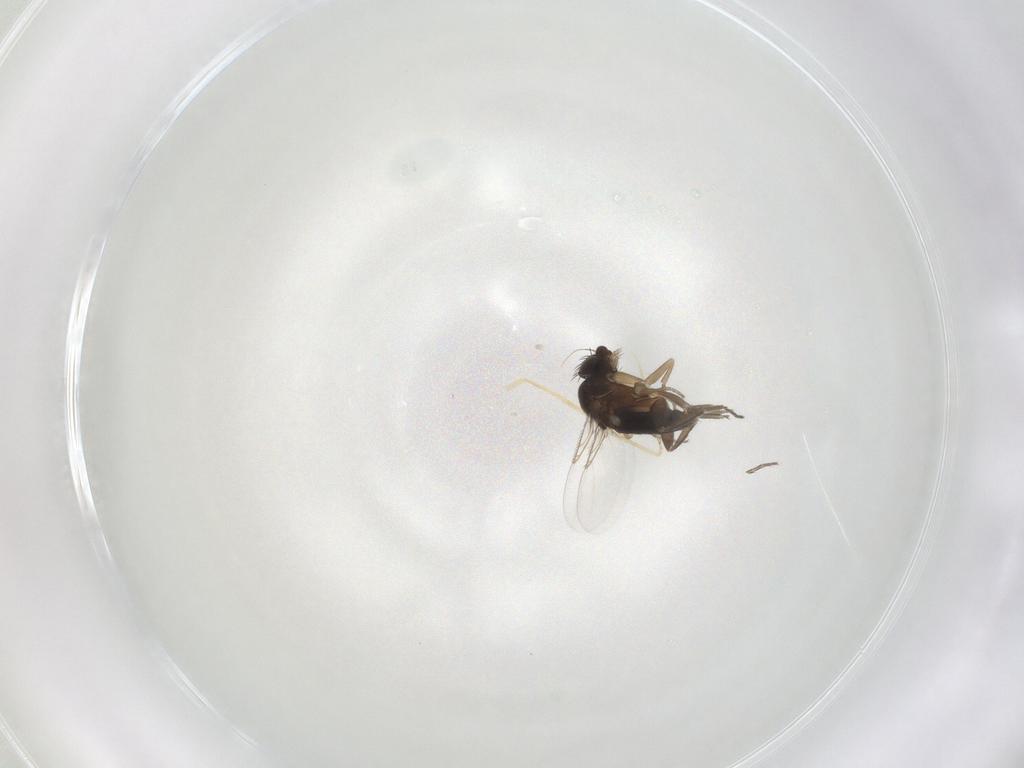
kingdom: Animalia
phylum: Arthropoda
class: Insecta
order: Diptera
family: Phoridae
